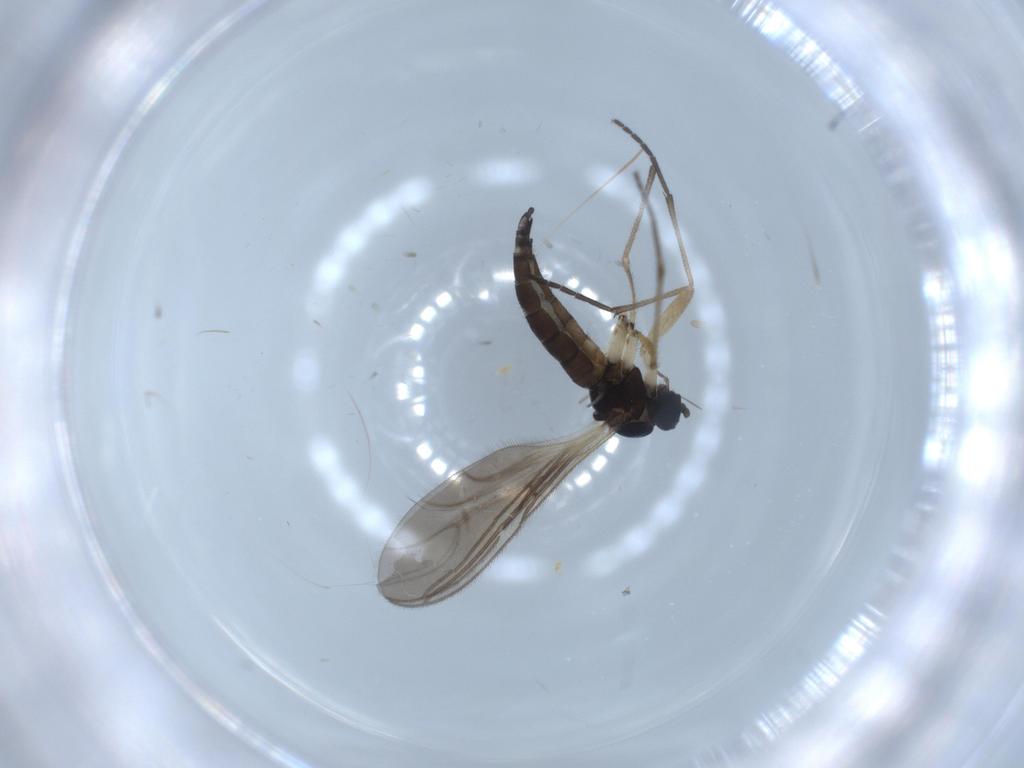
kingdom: Animalia
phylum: Arthropoda
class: Insecta
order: Diptera
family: Sciaridae
